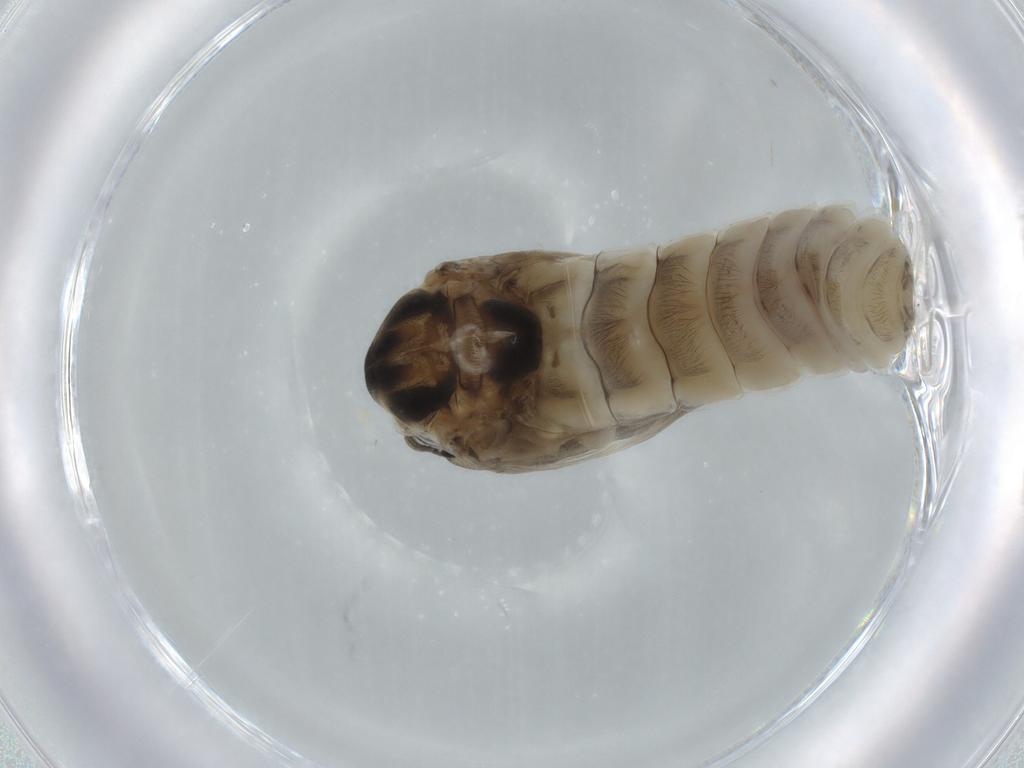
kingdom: Animalia
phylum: Arthropoda
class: Insecta
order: Diptera
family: Chironomidae
